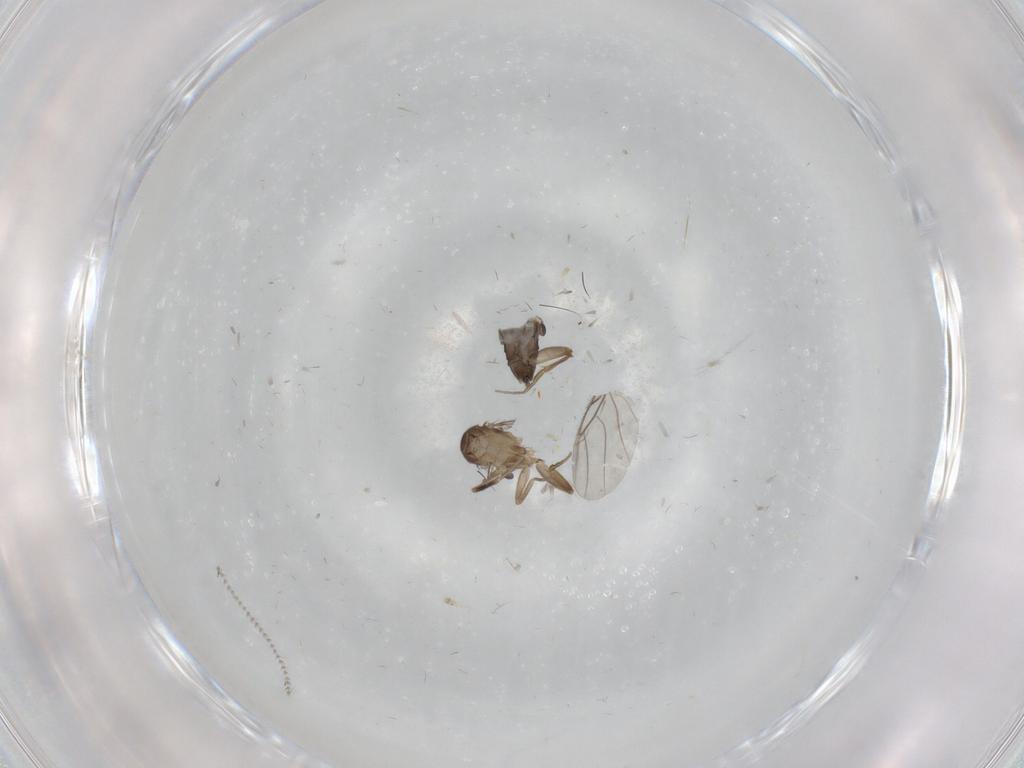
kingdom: Animalia
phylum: Arthropoda
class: Insecta
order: Diptera
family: Phoridae
